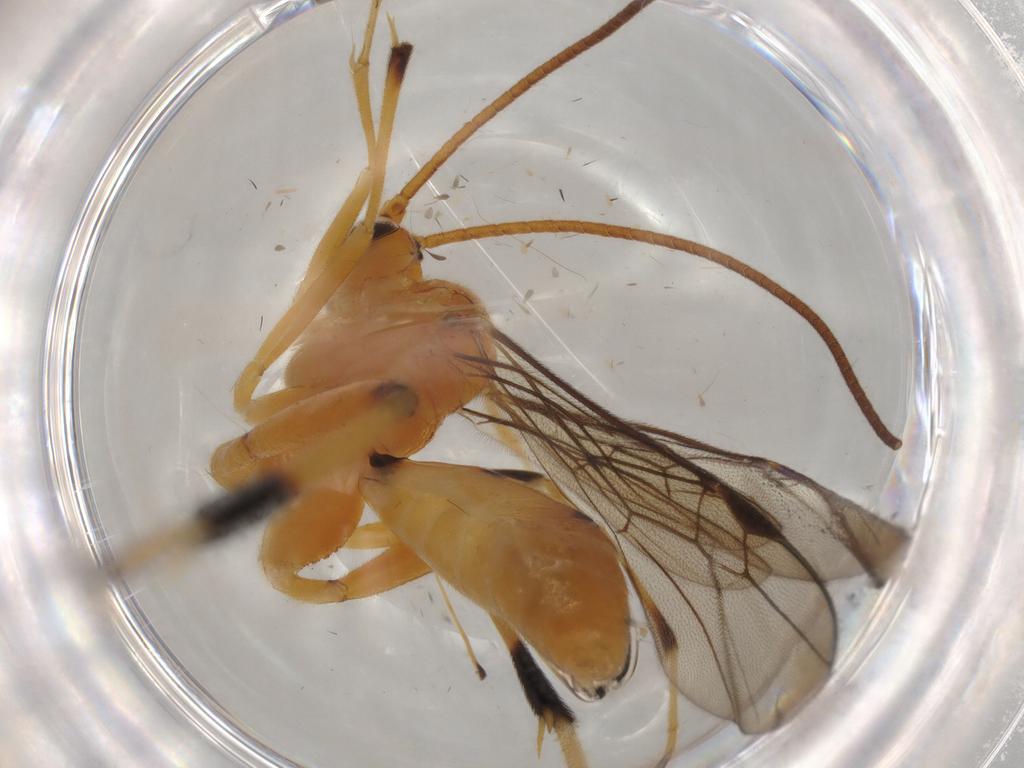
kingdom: Animalia
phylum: Arthropoda
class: Insecta
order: Hymenoptera
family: Braconidae
